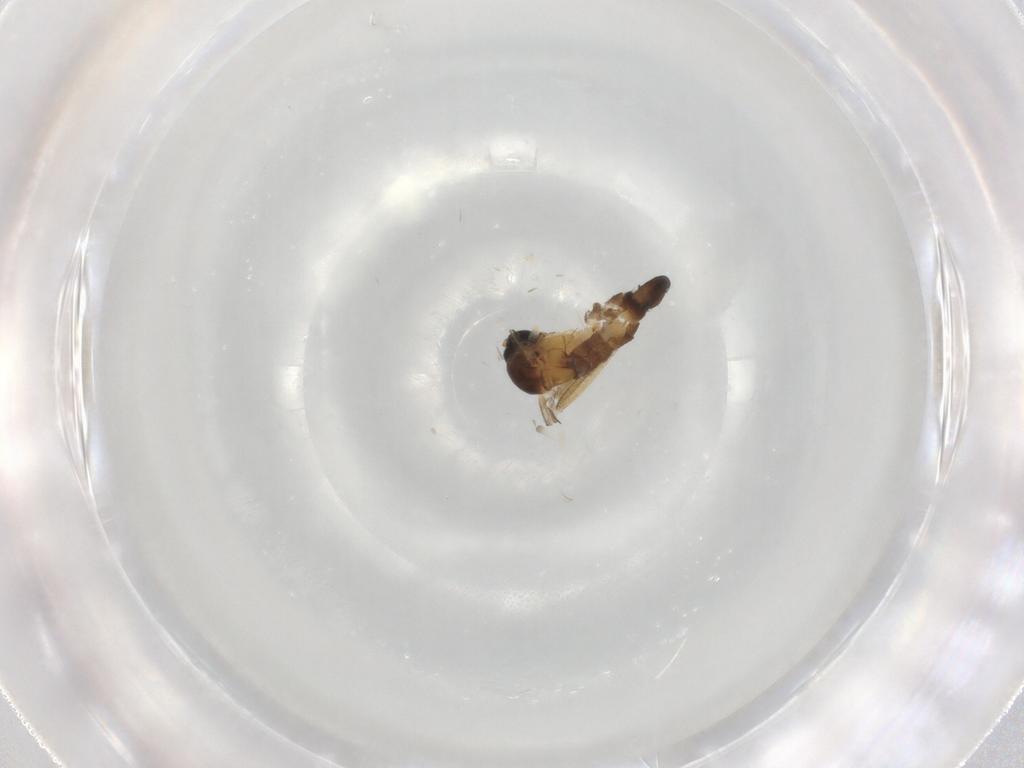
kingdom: Animalia
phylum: Arthropoda
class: Insecta
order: Diptera
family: Sciaridae
